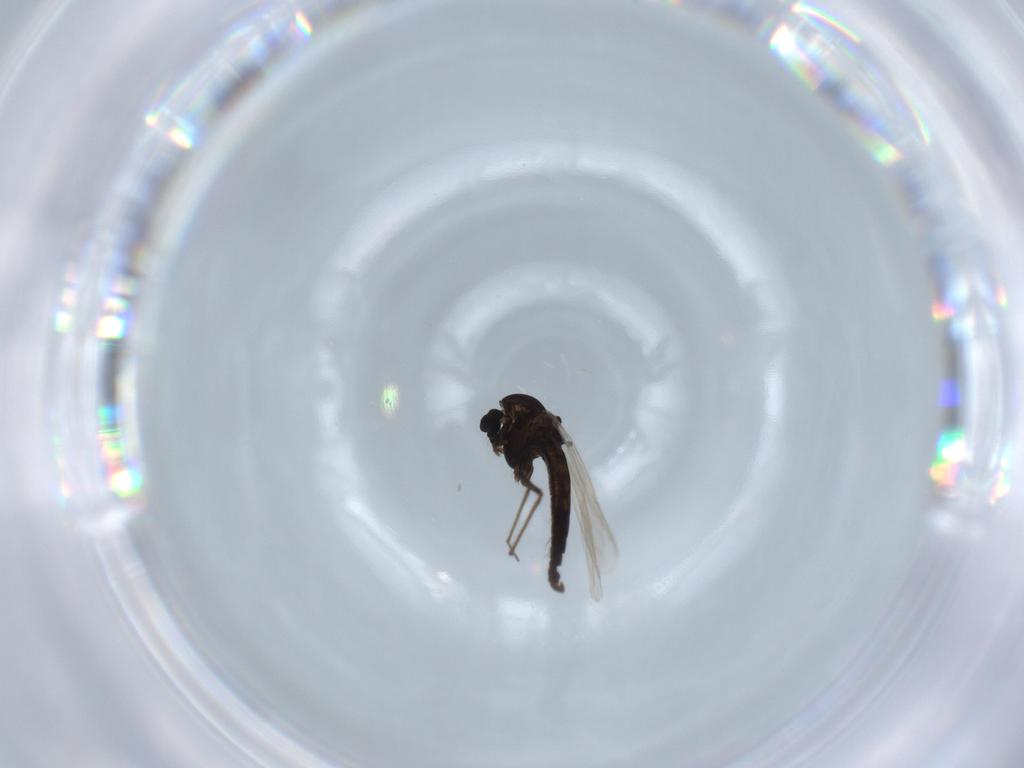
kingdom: Animalia
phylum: Arthropoda
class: Insecta
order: Diptera
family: Chironomidae
